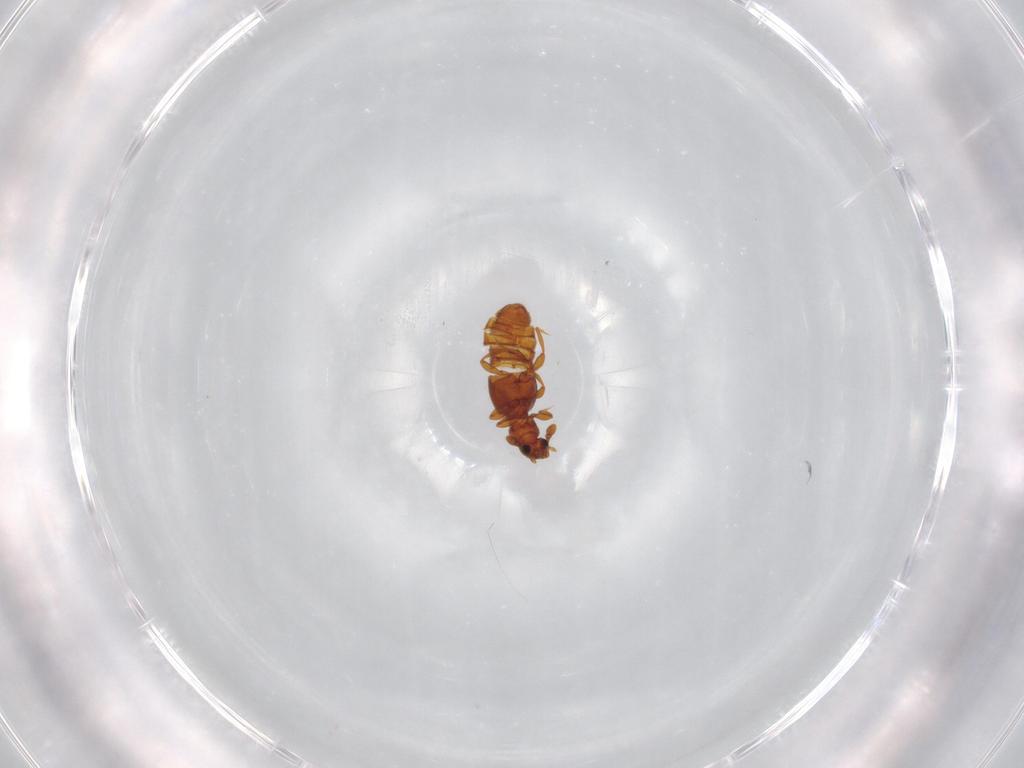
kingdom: Animalia
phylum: Arthropoda
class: Insecta
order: Coleoptera
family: Staphylinidae
